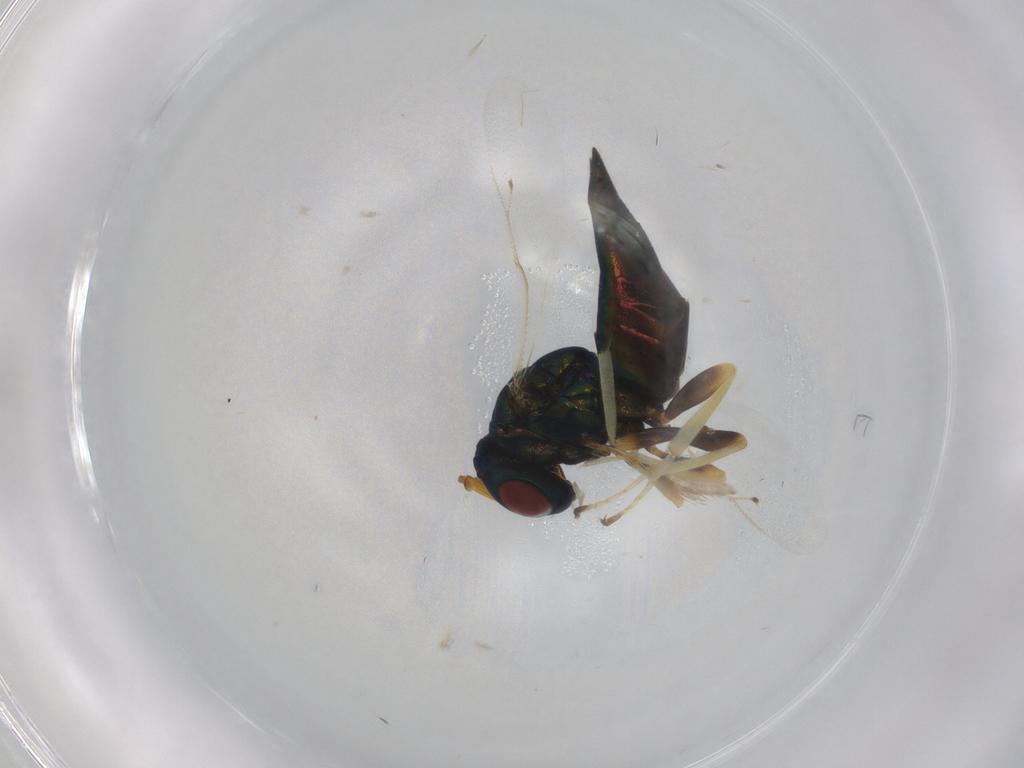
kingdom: Animalia
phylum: Arthropoda
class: Insecta
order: Hymenoptera
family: Pteromalidae
